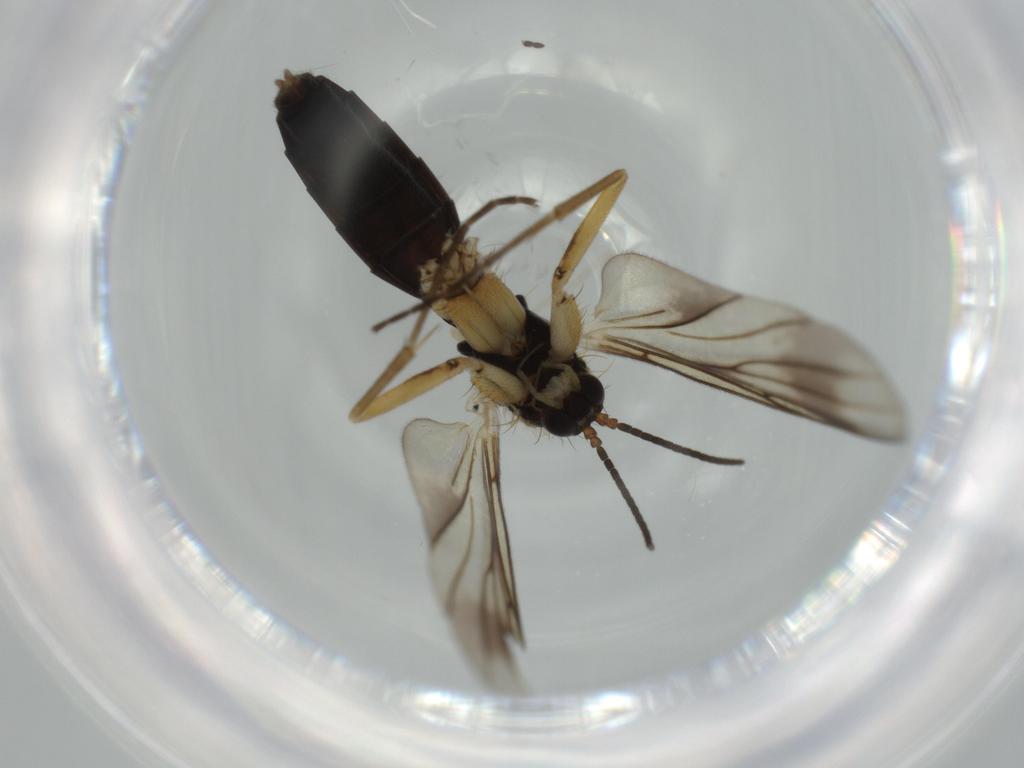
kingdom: Animalia
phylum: Arthropoda
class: Insecta
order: Diptera
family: Mycetophilidae
